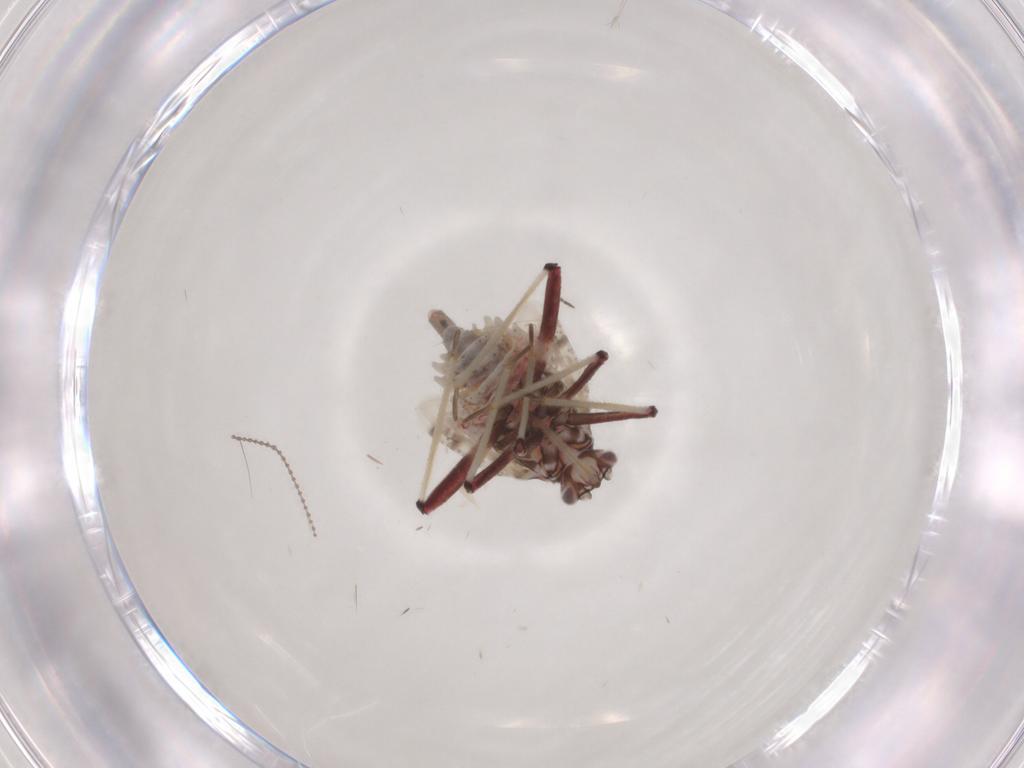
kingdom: Animalia
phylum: Arthropoda
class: Insecta
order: Hemiptera
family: Miridae
